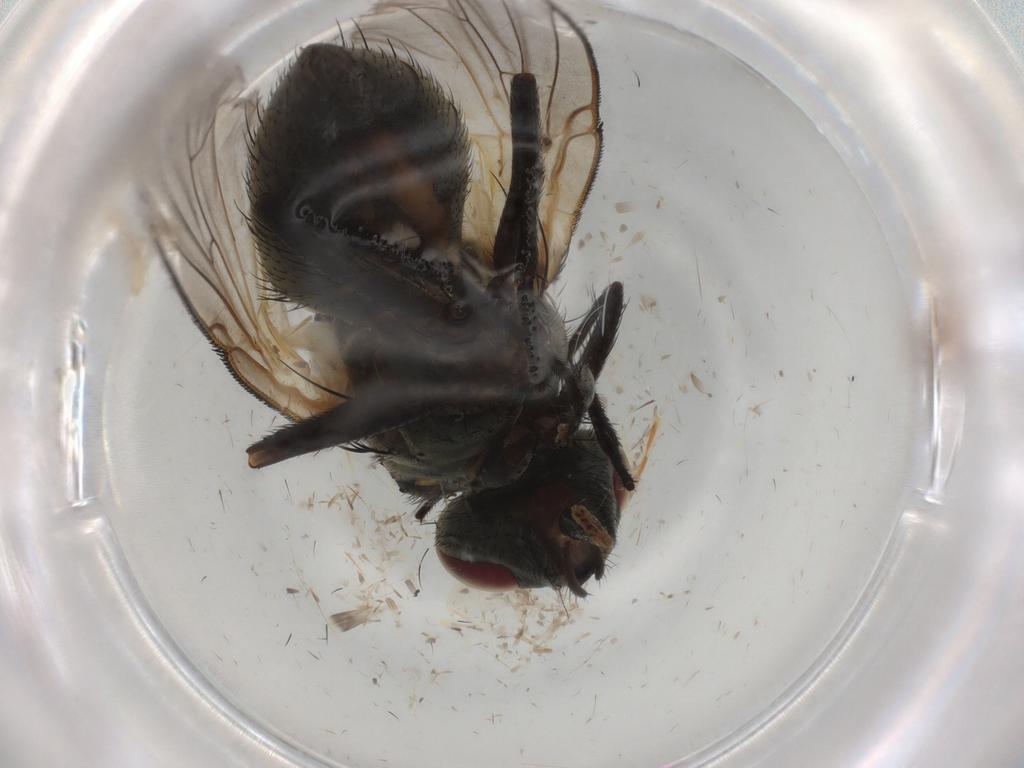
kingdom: Animalia
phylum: Arthropoda
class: Insecta
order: Diptera
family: Muscidae
